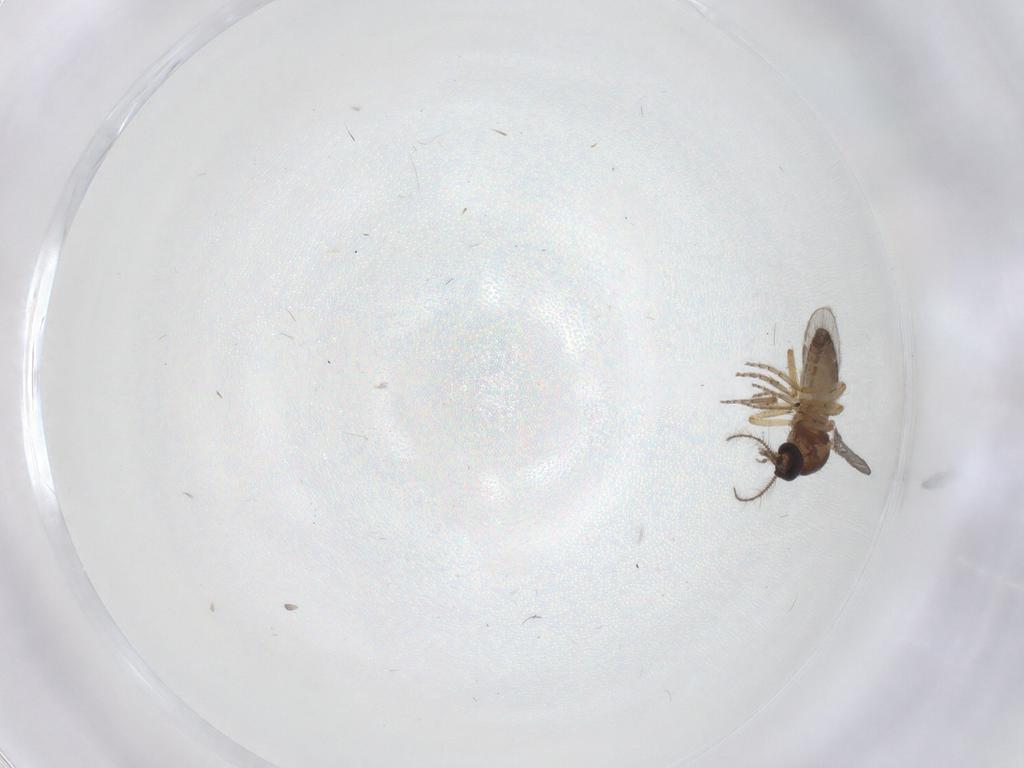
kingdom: Animalia
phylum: Arthropoda
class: Insecta
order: Diptera
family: Ceratopogonidae
